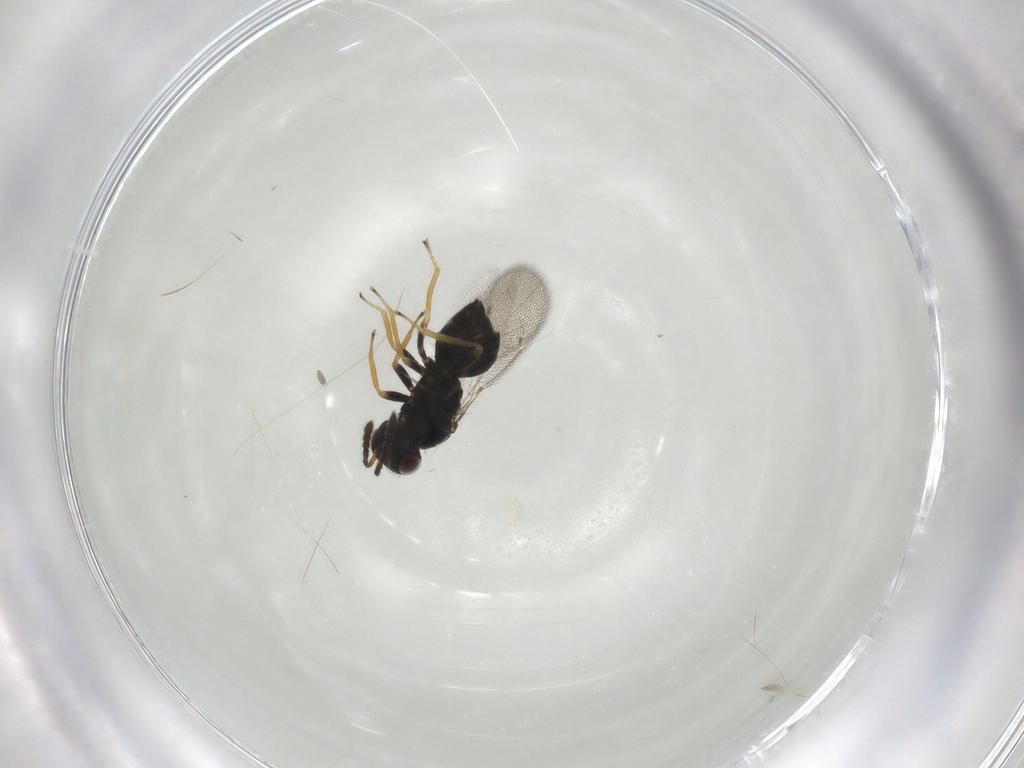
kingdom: Animalia
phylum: Arthropoda
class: Insecta
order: Hymenoptera
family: Eulophidae
